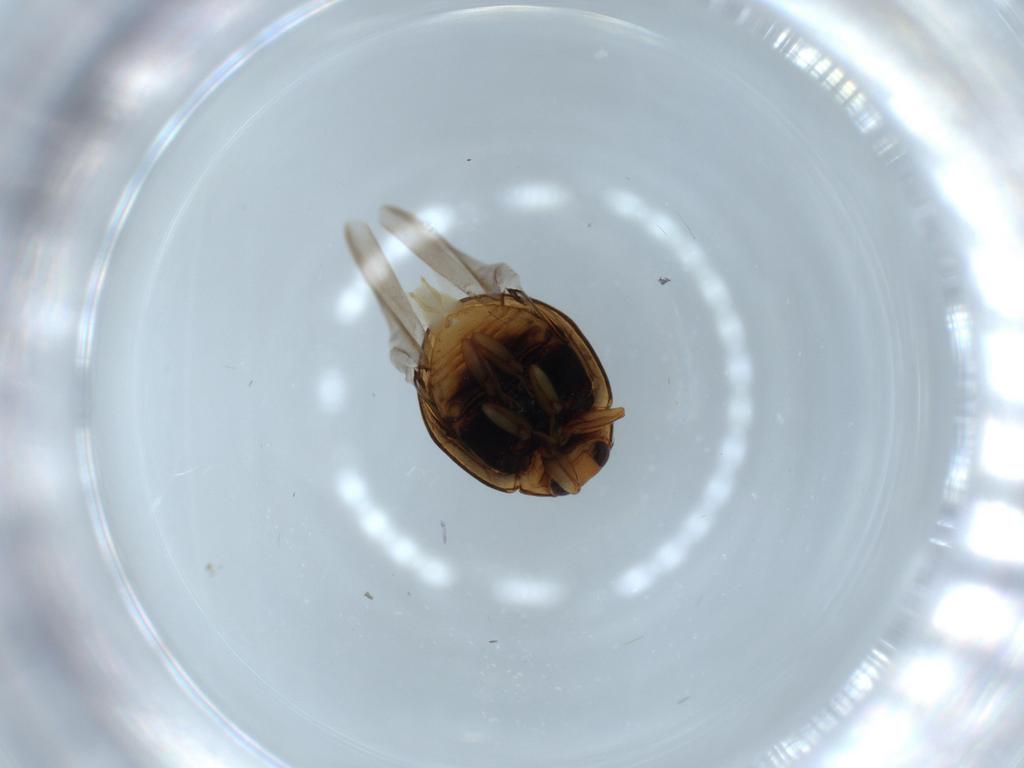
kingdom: Animalia
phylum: Arthropoda
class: Insecta
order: Coleoptera
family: Coccinellidae
